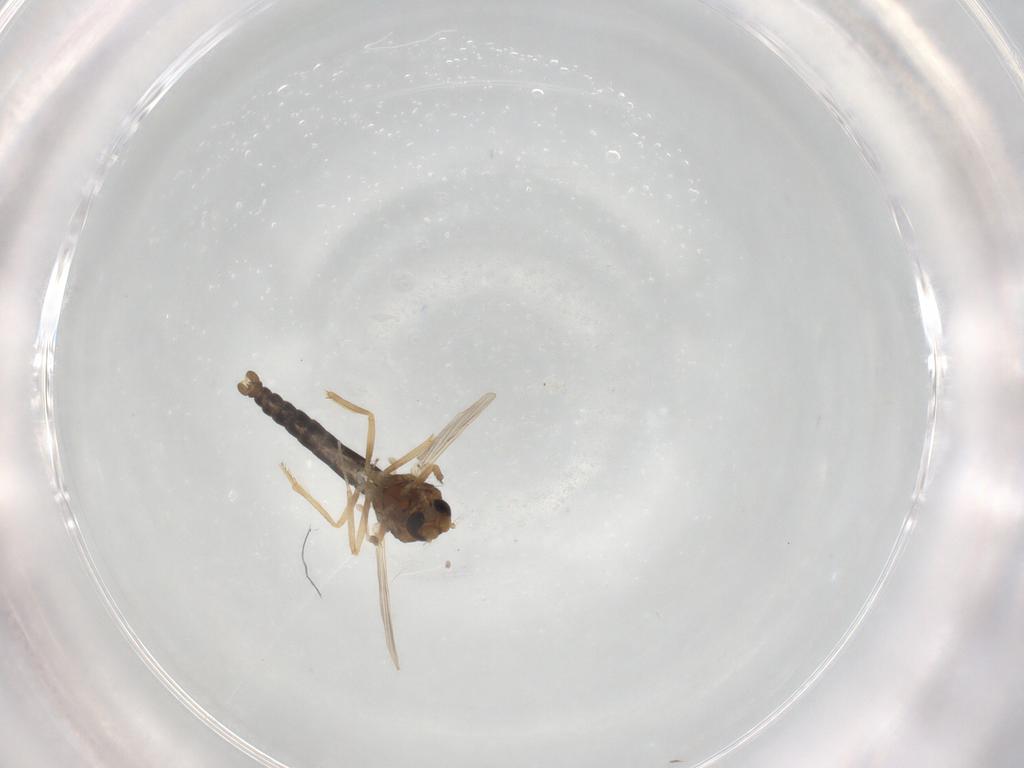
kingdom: Animalia
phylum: Arthropoda
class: Insecta
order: Diptera
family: Ceratopogonidae
